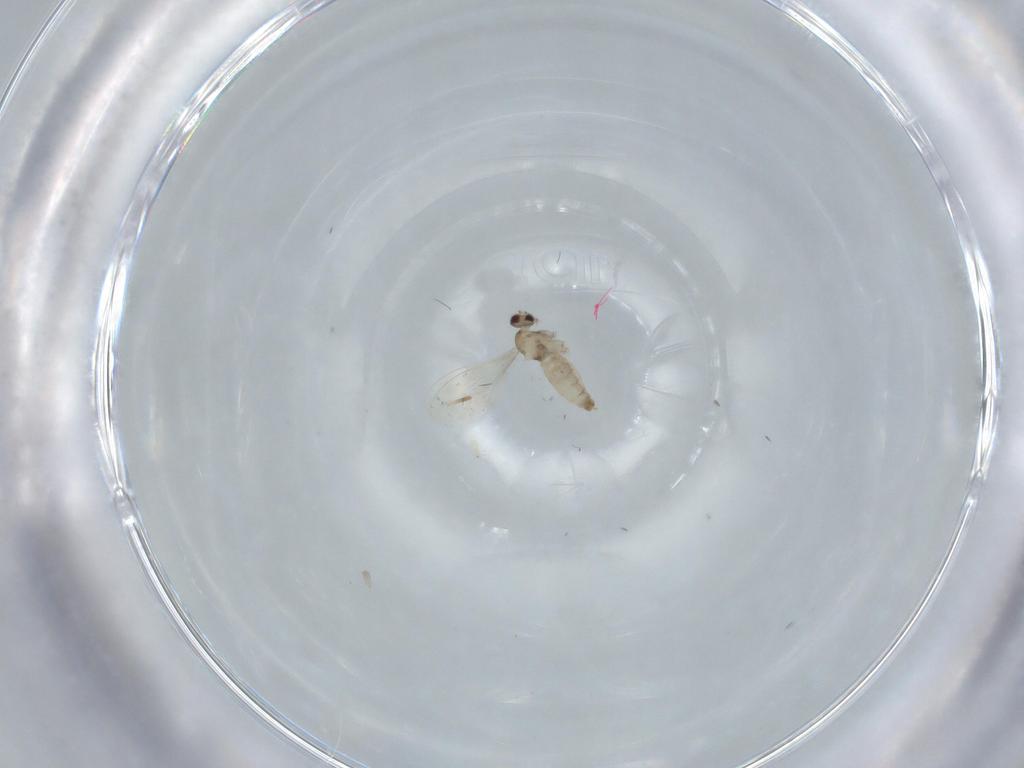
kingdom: Animalia
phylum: Arthropoda
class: Insecta
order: Diptera
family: Cecidomyiidae
